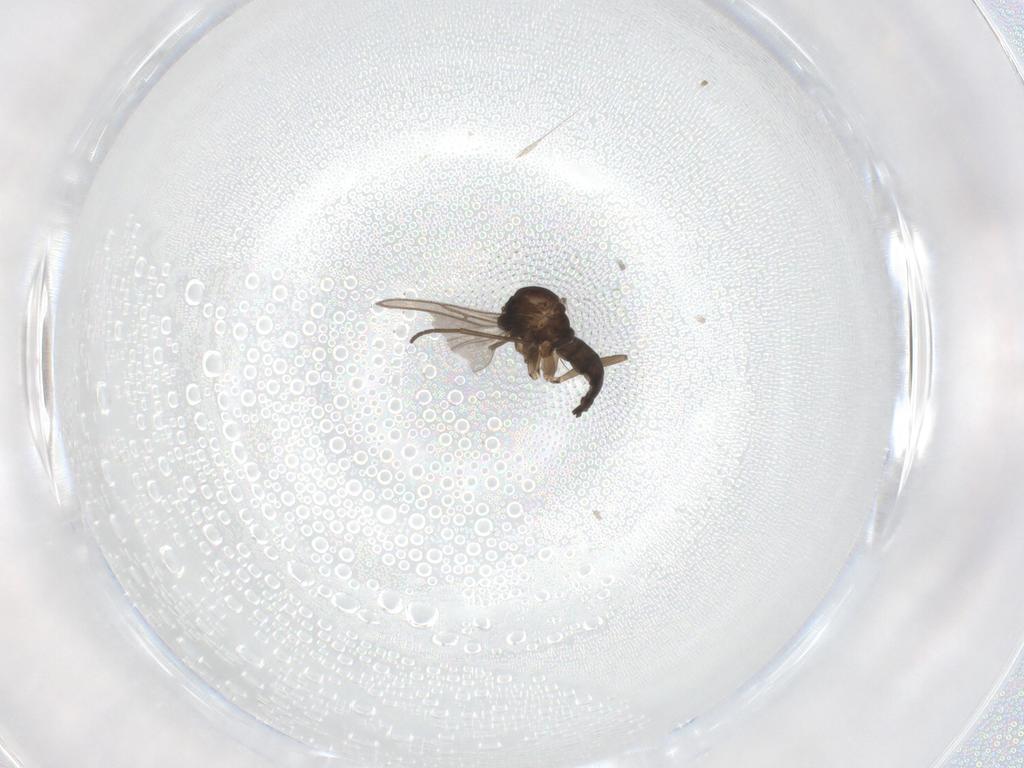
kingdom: Animalia
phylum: Arthropoda
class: Insecta
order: Diptera
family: Sciaridae
